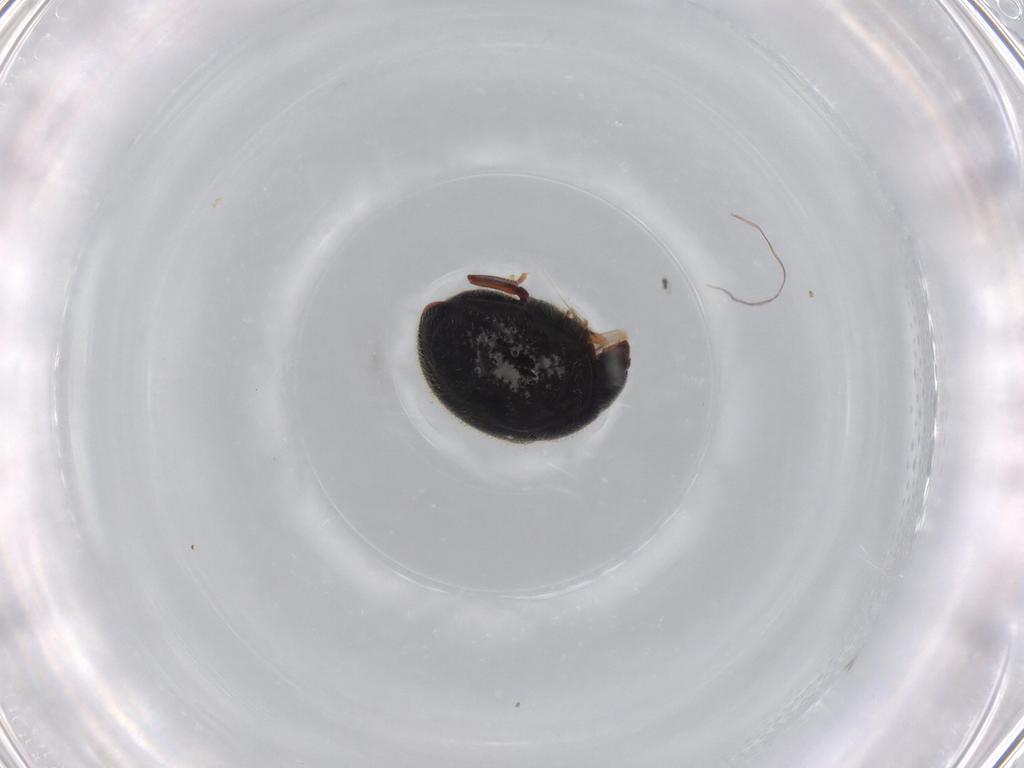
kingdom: Animalia
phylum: Arthropoda
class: Insecta
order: Coleoptera
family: Ptinidae
